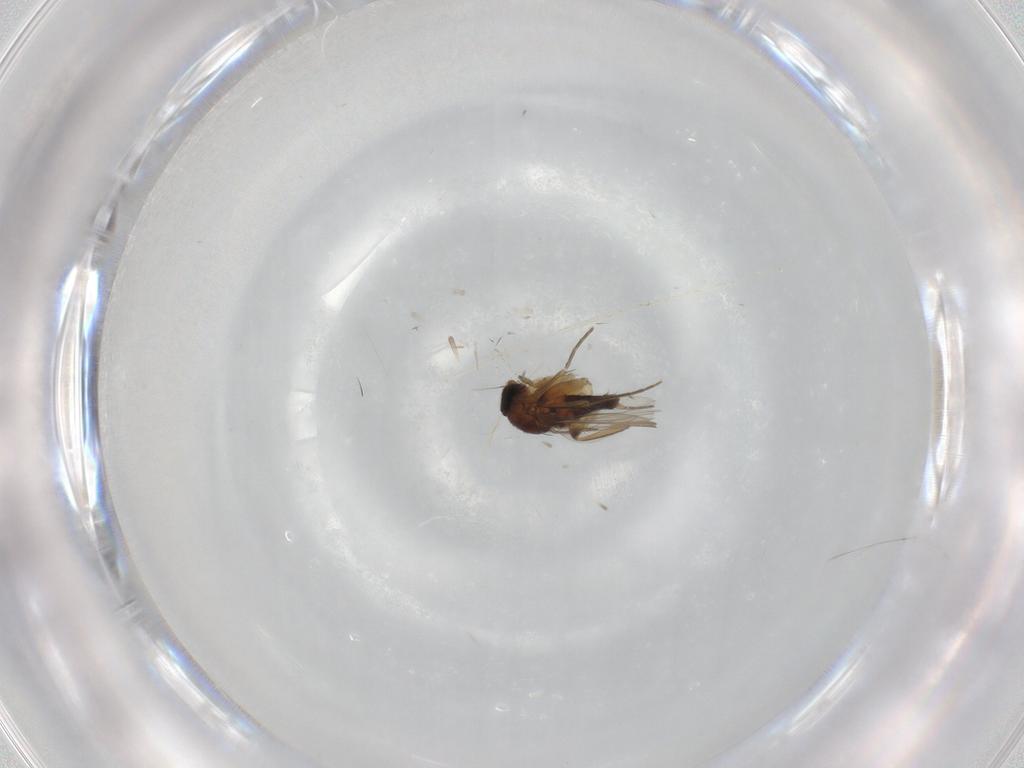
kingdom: Animalia
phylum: Arthropoda
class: Insecta
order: Diptera
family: Phoridae
